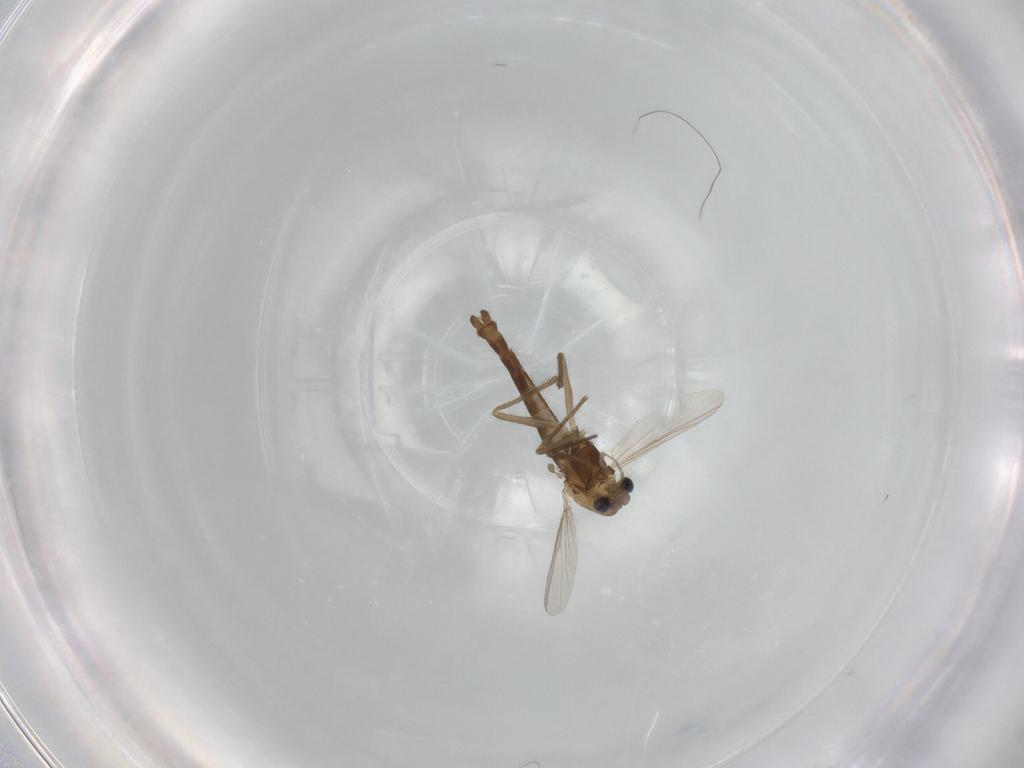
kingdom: Animalia
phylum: Arthropoda
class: Insecta
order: Diptera
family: Chironomidae
